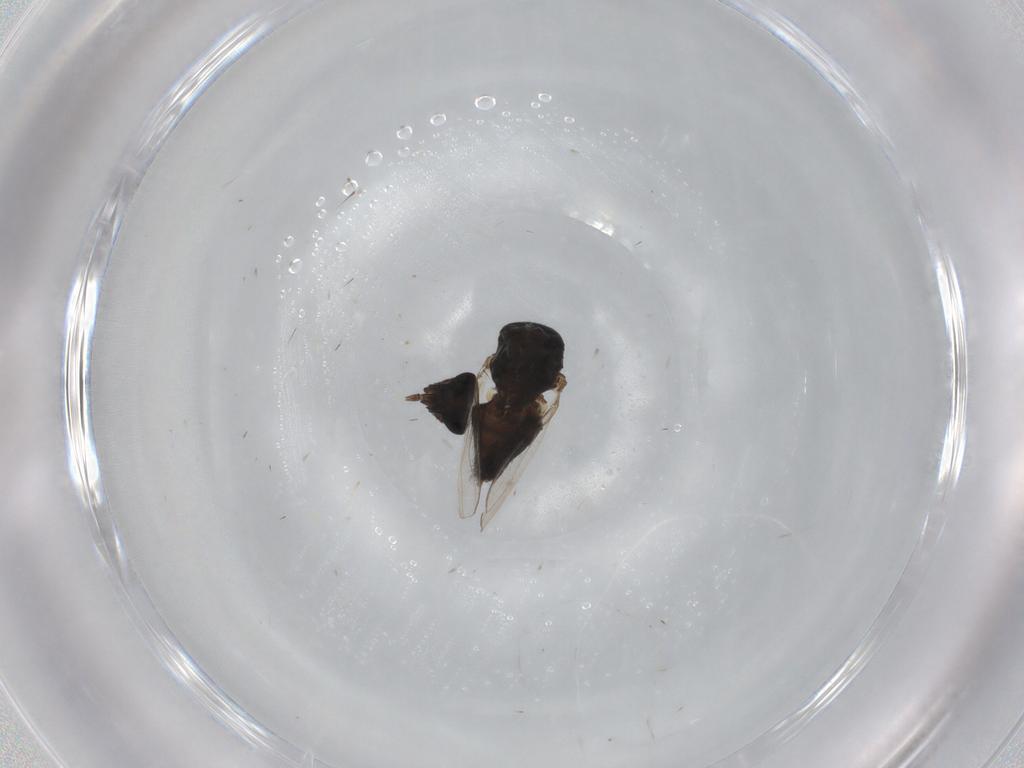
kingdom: Animalia
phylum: Arthropoda
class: Insecta
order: Diptera
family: Milichiidae
